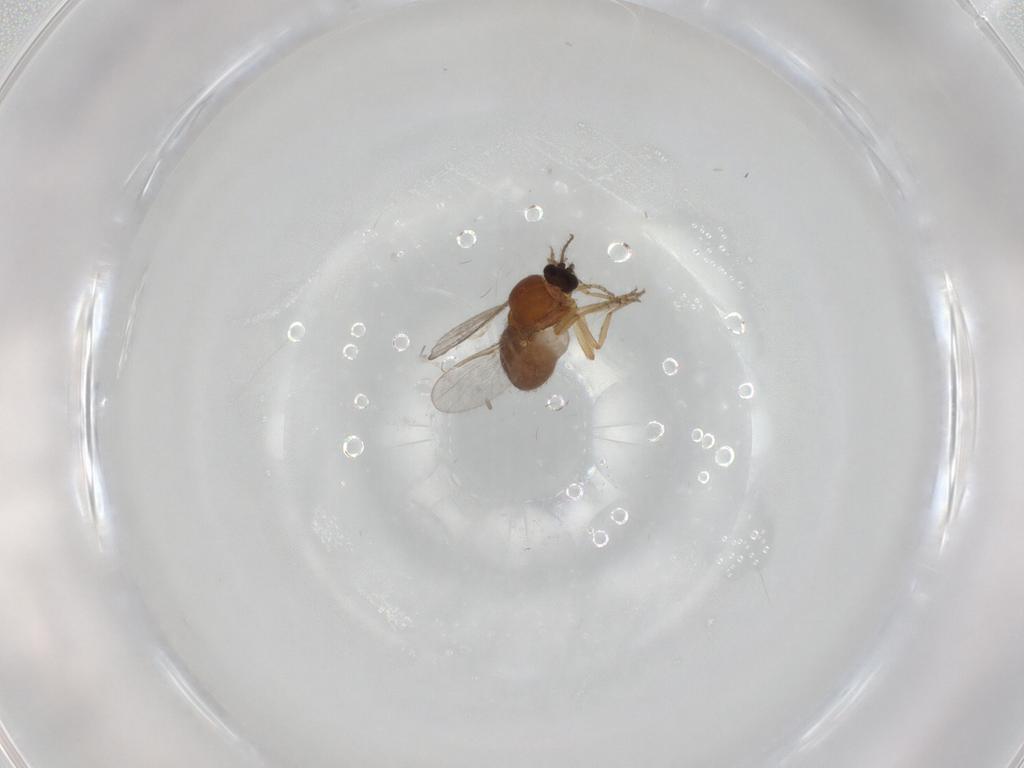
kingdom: Animalia
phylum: Arthropoda
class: Insecta
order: Diptera
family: Ceratopogonidae
